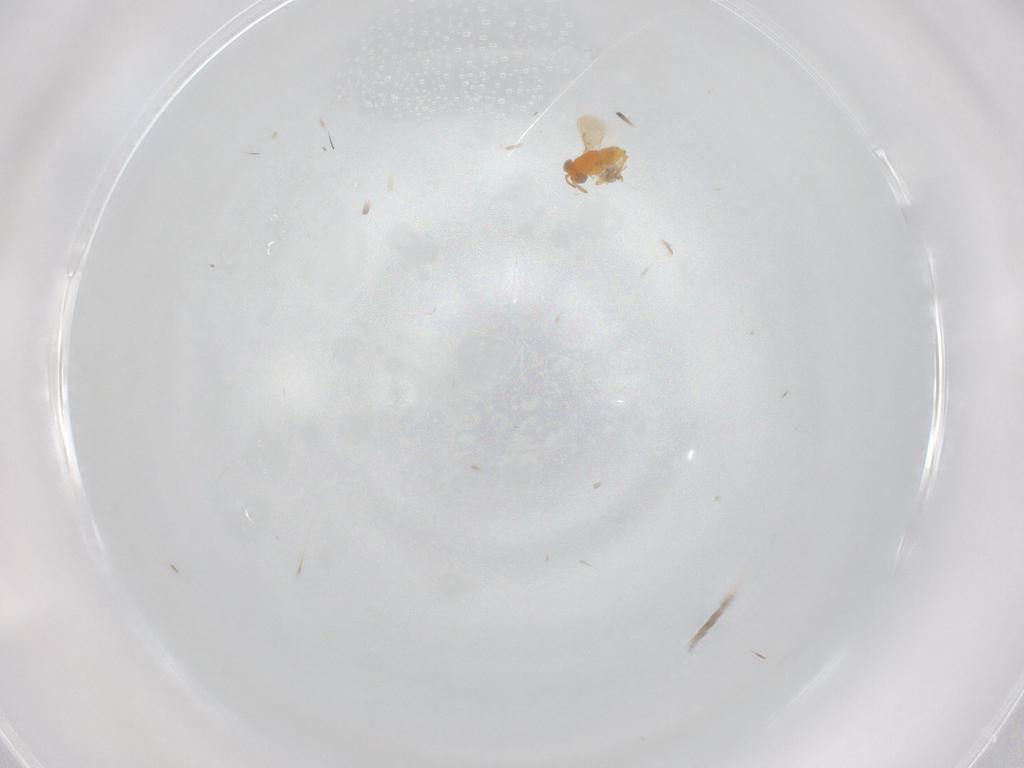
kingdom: Animalia
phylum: Arthropoda
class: Insecta
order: Hymenoptera
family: Aphelinidae
